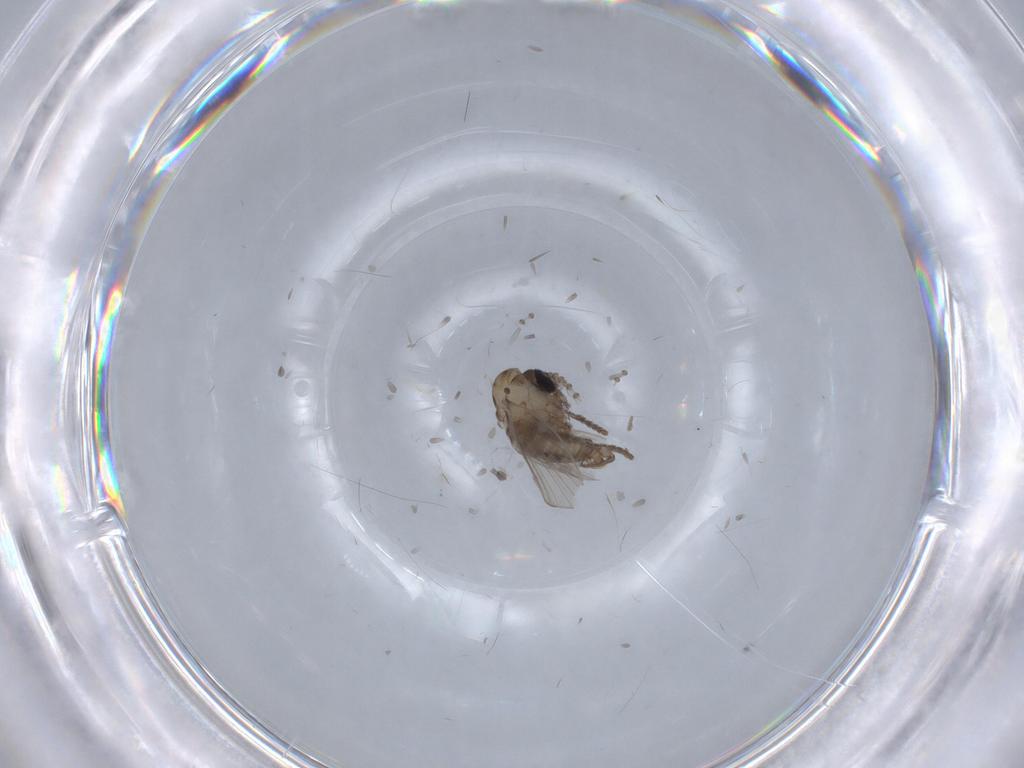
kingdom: Animalia
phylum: Arthropoda
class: Insecta
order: Diptera
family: Drosophilidae
